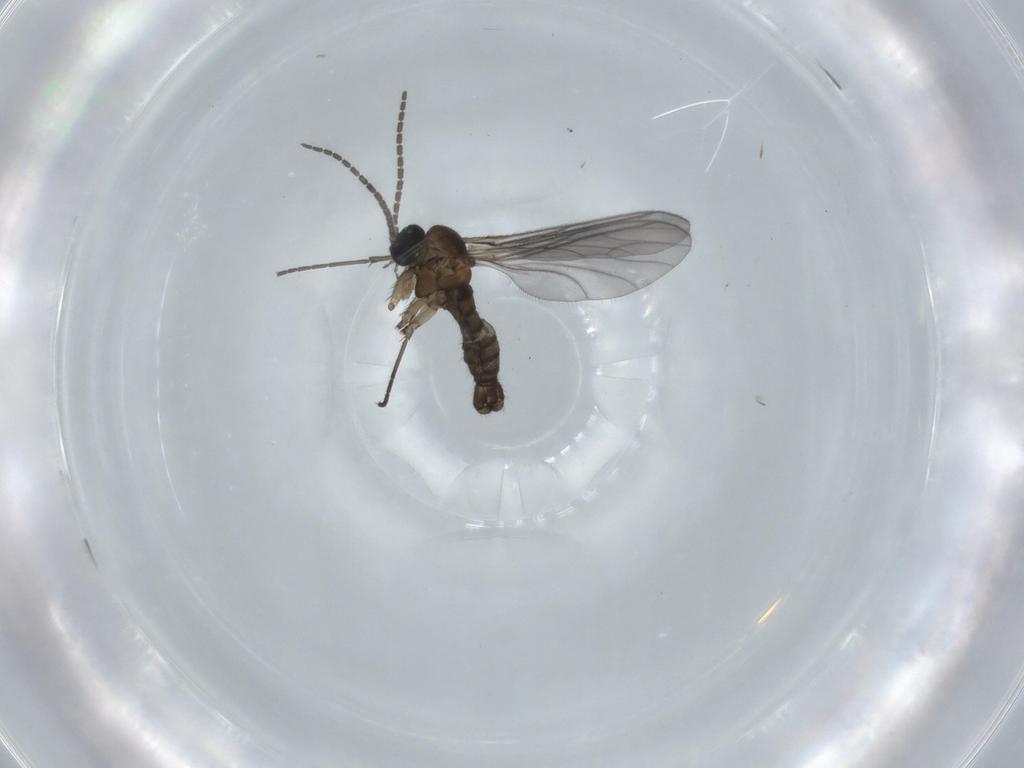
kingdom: Animalia
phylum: Arthropoda
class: Insecta
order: Diptera
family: Sciaridae
